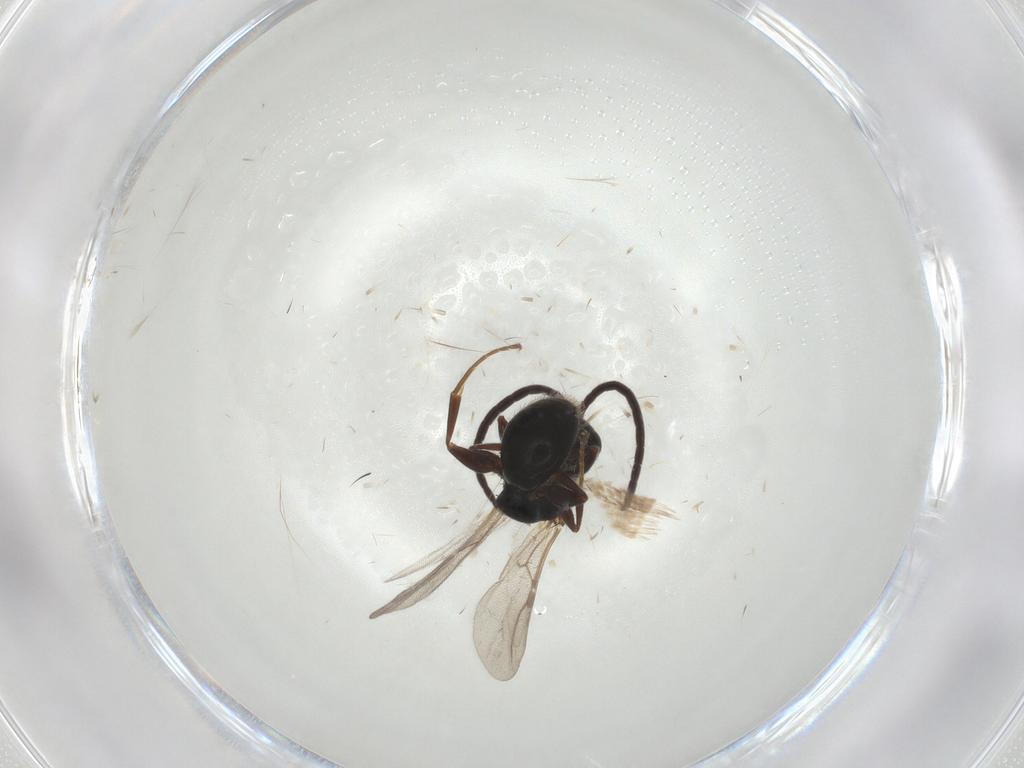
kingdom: Animalia
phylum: Arthropoda
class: Insecta
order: Hymenoptera
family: Bethylidae
